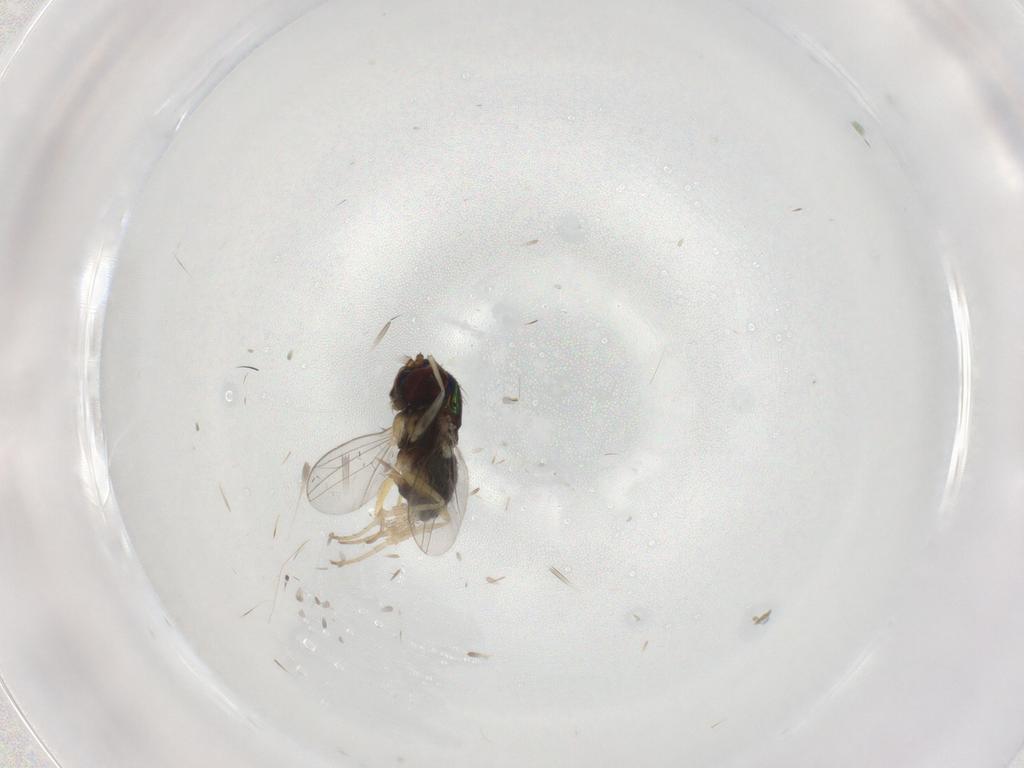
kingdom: Animalia
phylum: Arthropoda
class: Insecta
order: Diptera
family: Dolichopodidae
